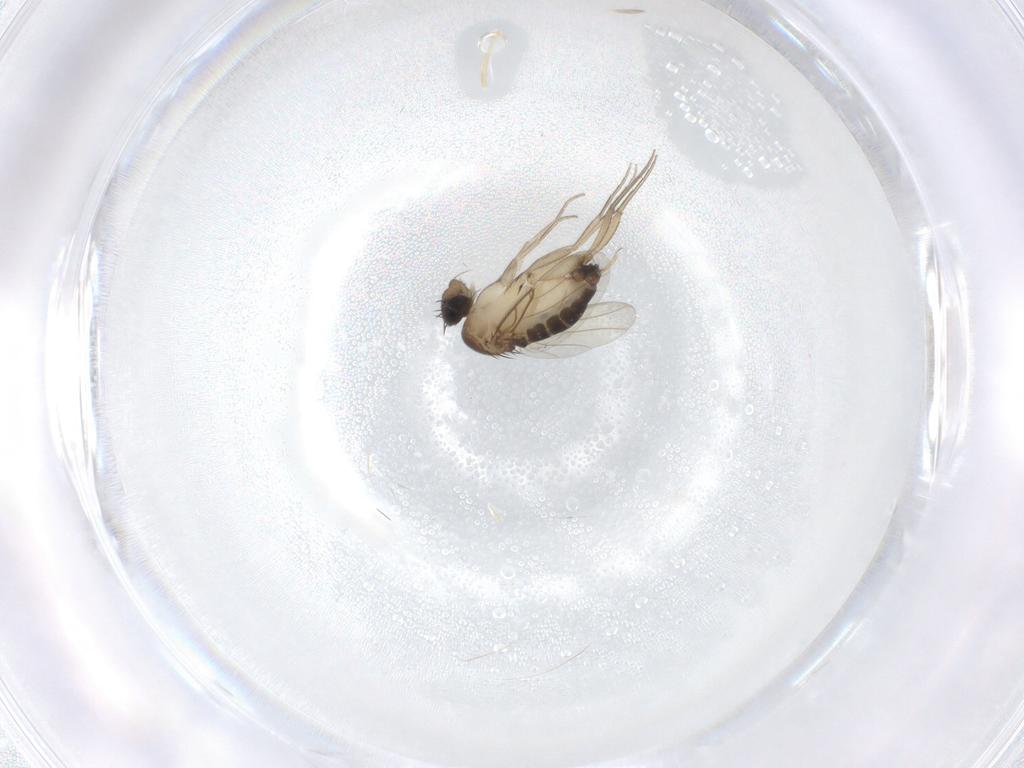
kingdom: Animalia
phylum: Arthropoda
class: Insecta
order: Diptera
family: Phoridae
